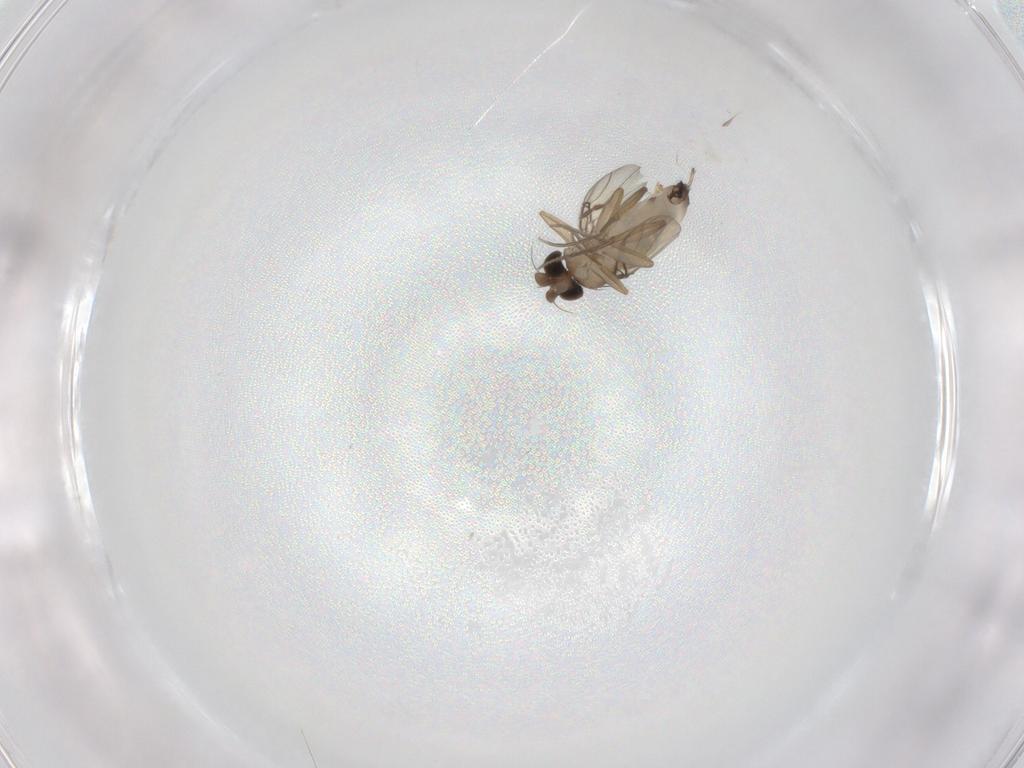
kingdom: Animalia
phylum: Arthropoda
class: Insecta
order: Diptera
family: Phoridae
